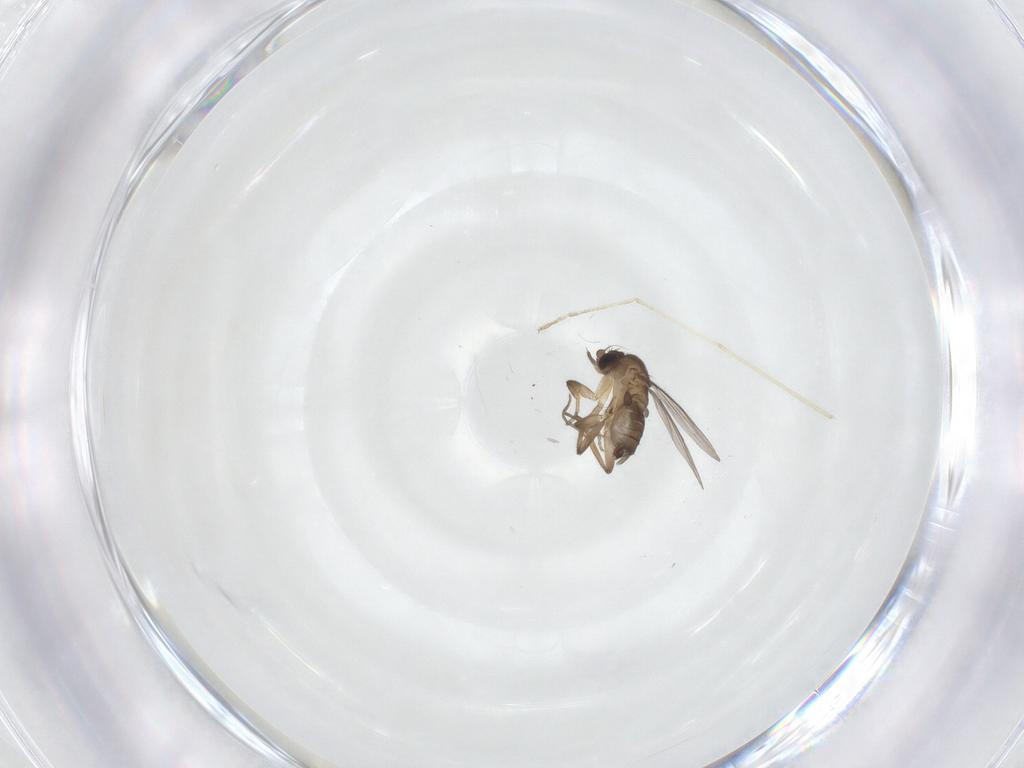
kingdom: Animalia
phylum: Arthropoda
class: Insecta
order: Diptera
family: Phoridae
